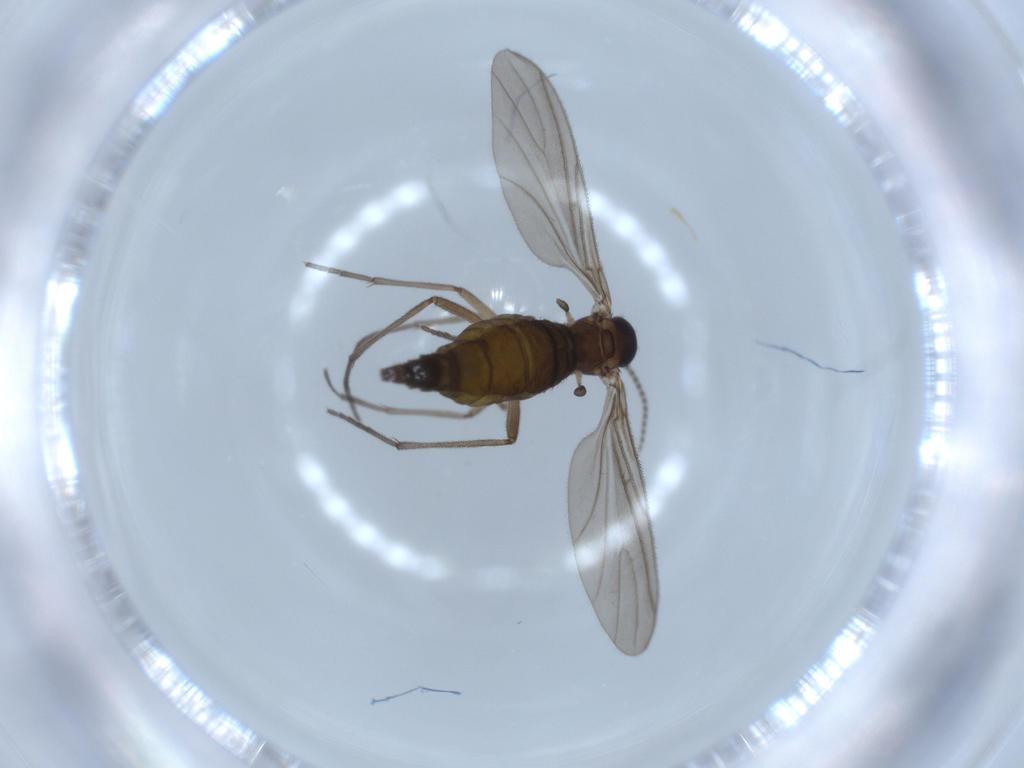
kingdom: Animalia
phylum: Arthropoda
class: Insecta
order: Diptera
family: Sciaridae
